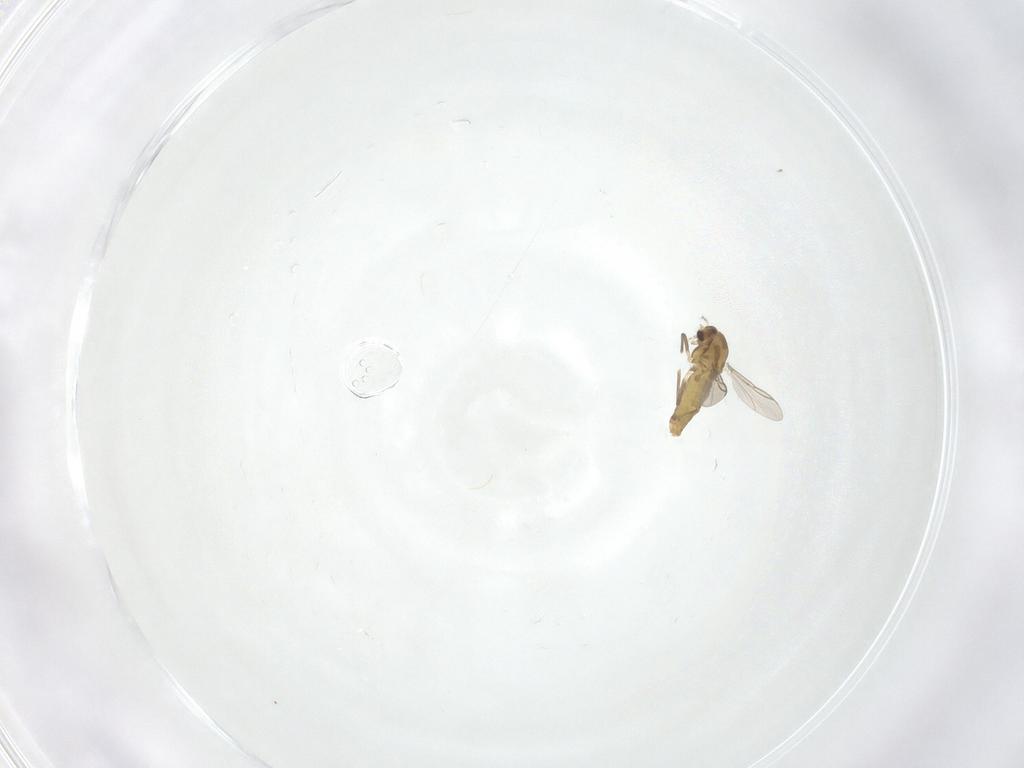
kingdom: Animalia
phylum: Arthropoda
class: Insecta
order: Diptera
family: Chironomidae
